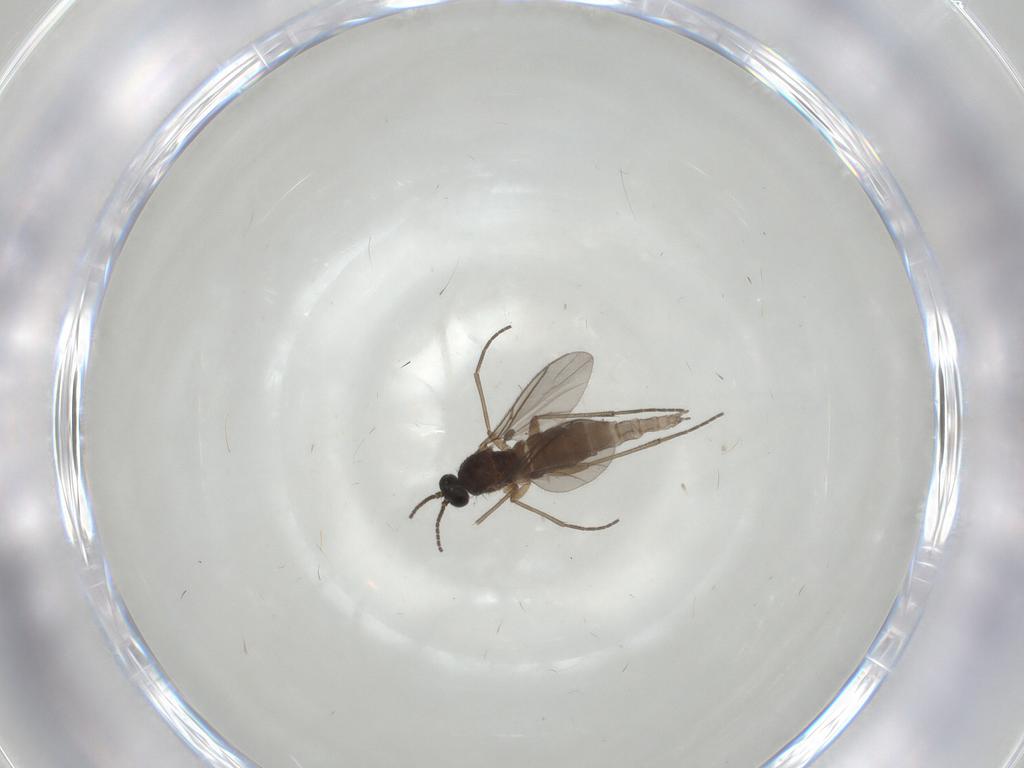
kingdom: Animalia
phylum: Arthropoda
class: Insecta
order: Diptera
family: Sciaridae
